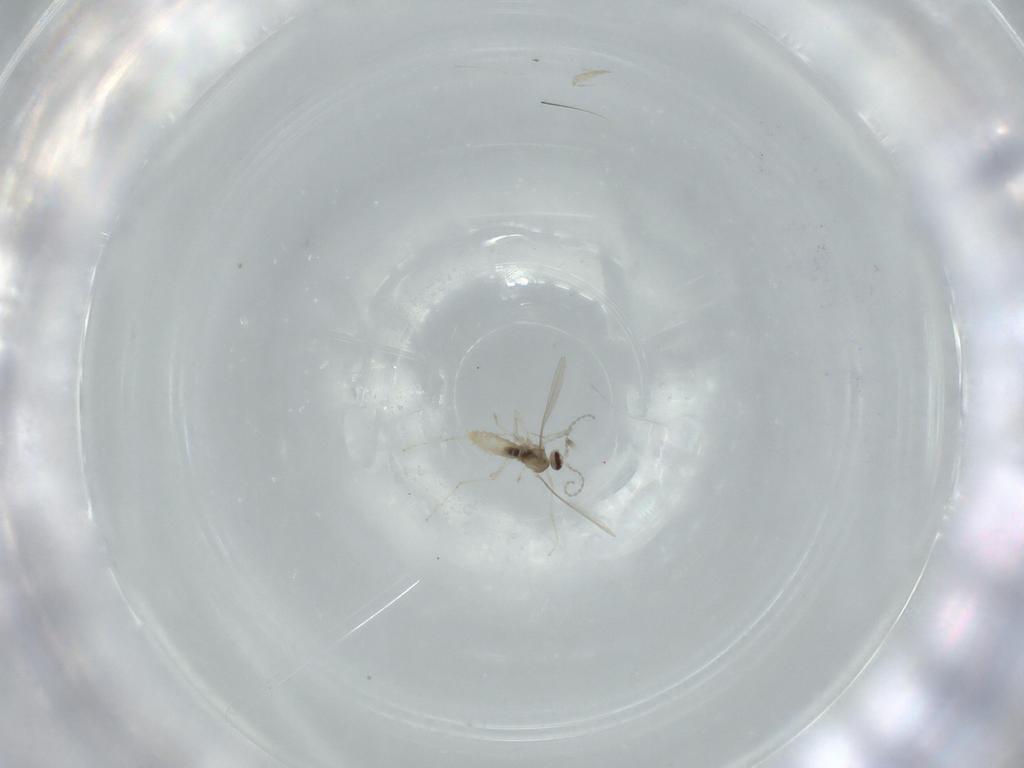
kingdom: Animalia
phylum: Arthropoda
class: Insecta
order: Diptera
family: Cecidomyiidae
